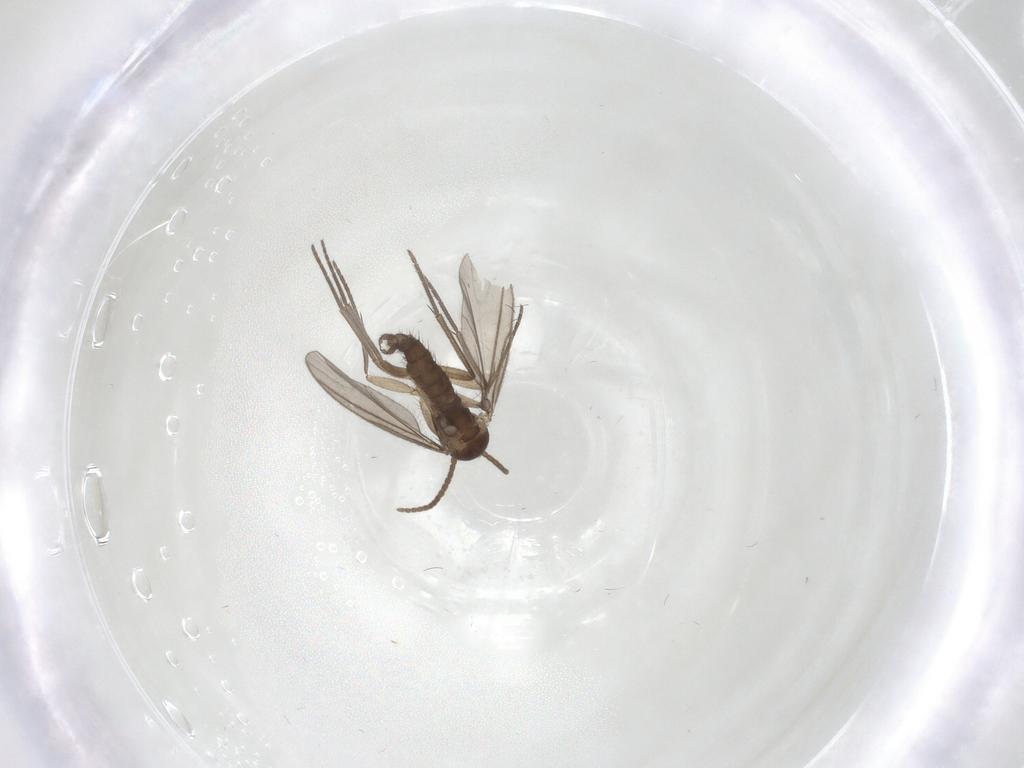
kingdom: Animalia
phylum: Arthropoda
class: Insecta
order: Diptera
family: Sciaridae
